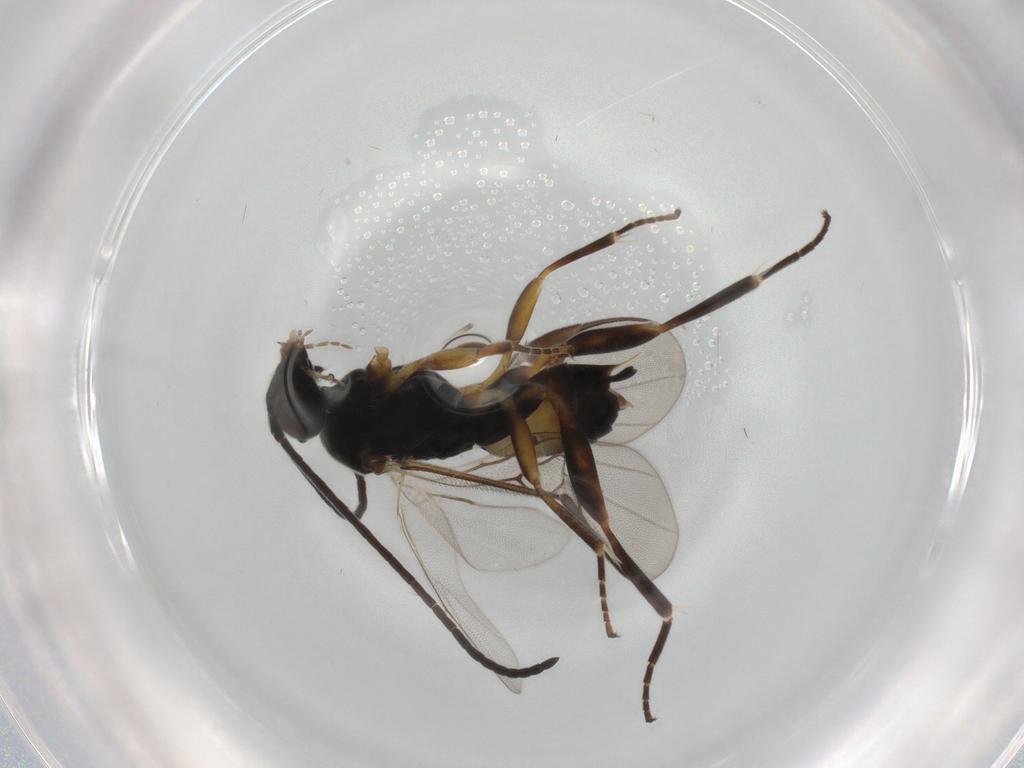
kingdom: Animalia
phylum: Arthropoda
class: Insecta
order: Hymenoptera
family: Braconidae
